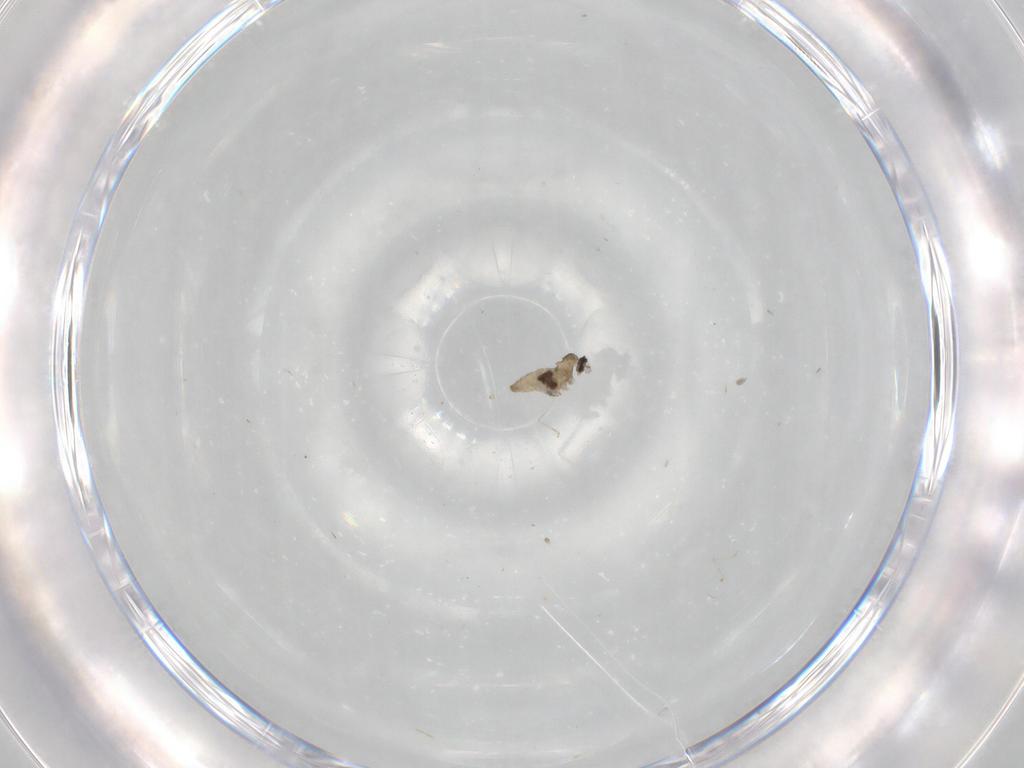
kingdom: Animalia
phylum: Arthropoda
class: Insecta
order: Diptera
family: Cecidomyiidae
